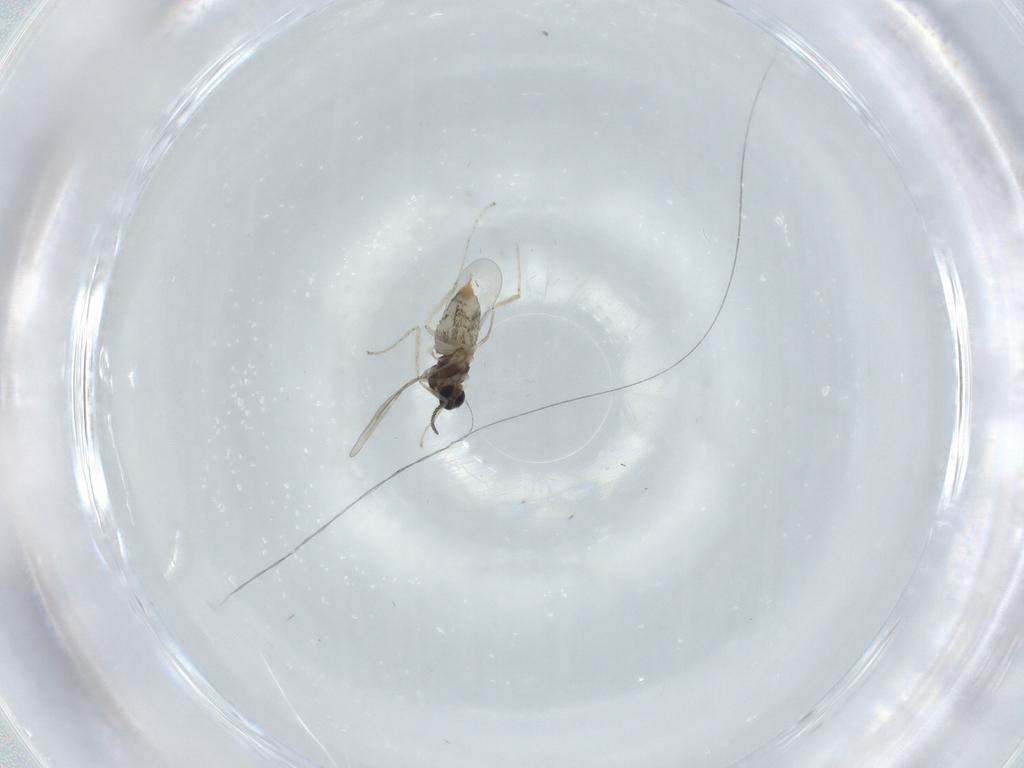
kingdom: Animalia
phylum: Arthropoda
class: Insecta
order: Diptera
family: Cecidomyiidae
